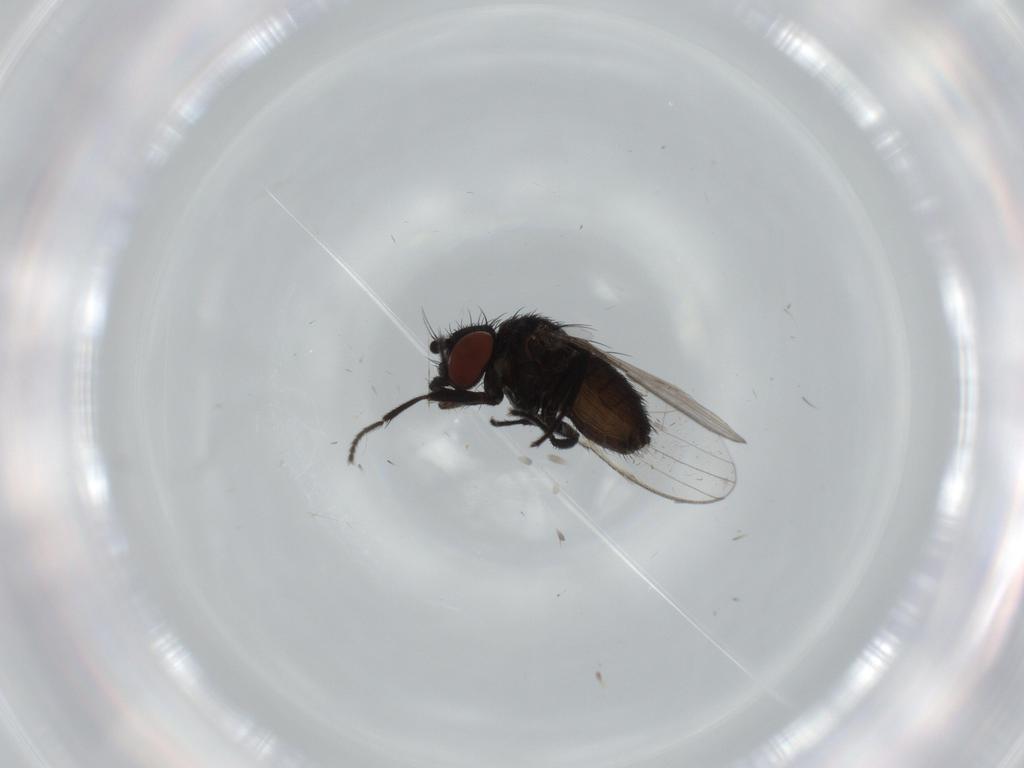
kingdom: Animalia
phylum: Arthropoda
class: Insecta
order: Diptera
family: Milichiidae
